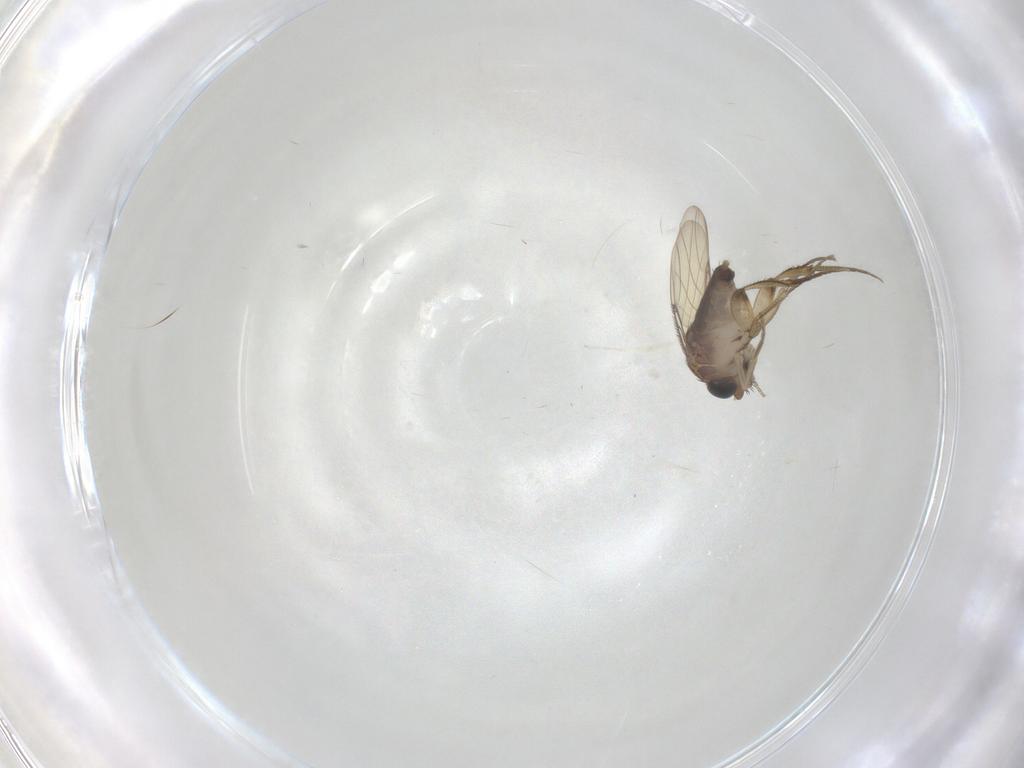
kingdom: Animalia
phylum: Arthropoda
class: Insecta
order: Diptera
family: Phoridae
